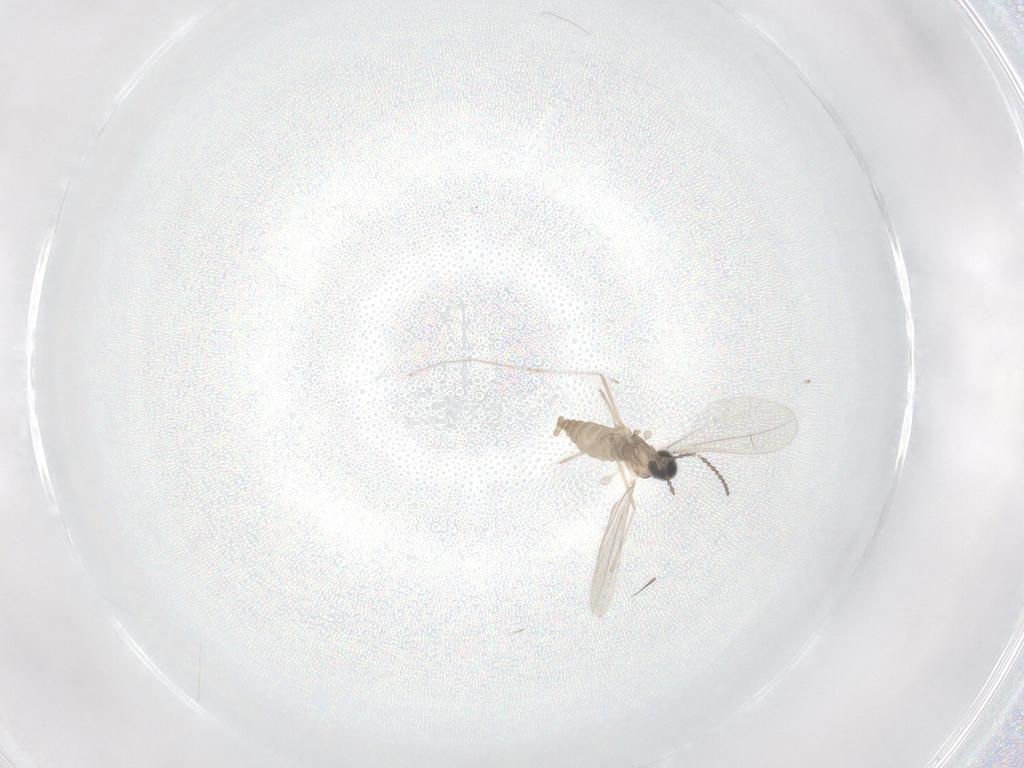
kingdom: Animalia
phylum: Arthropoda
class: Insecta
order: Diptera
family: Cecidomyiidae
